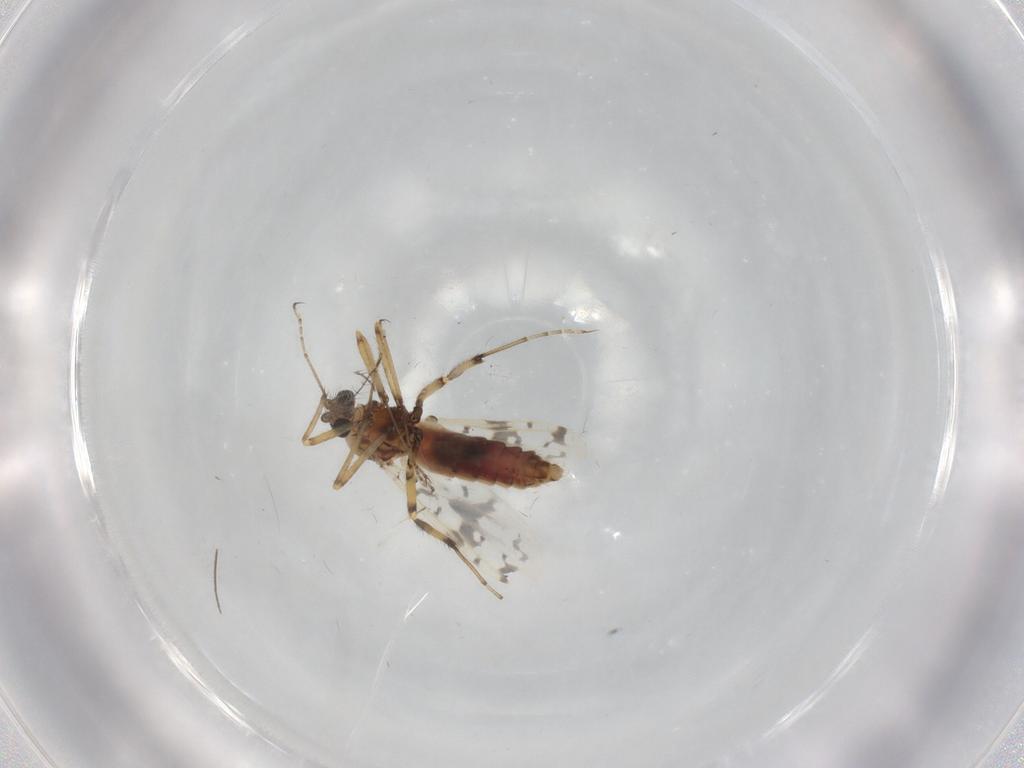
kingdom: Animalia
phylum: Arthropoda
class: Insecta
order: Diptera
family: Ceratopogonidae
